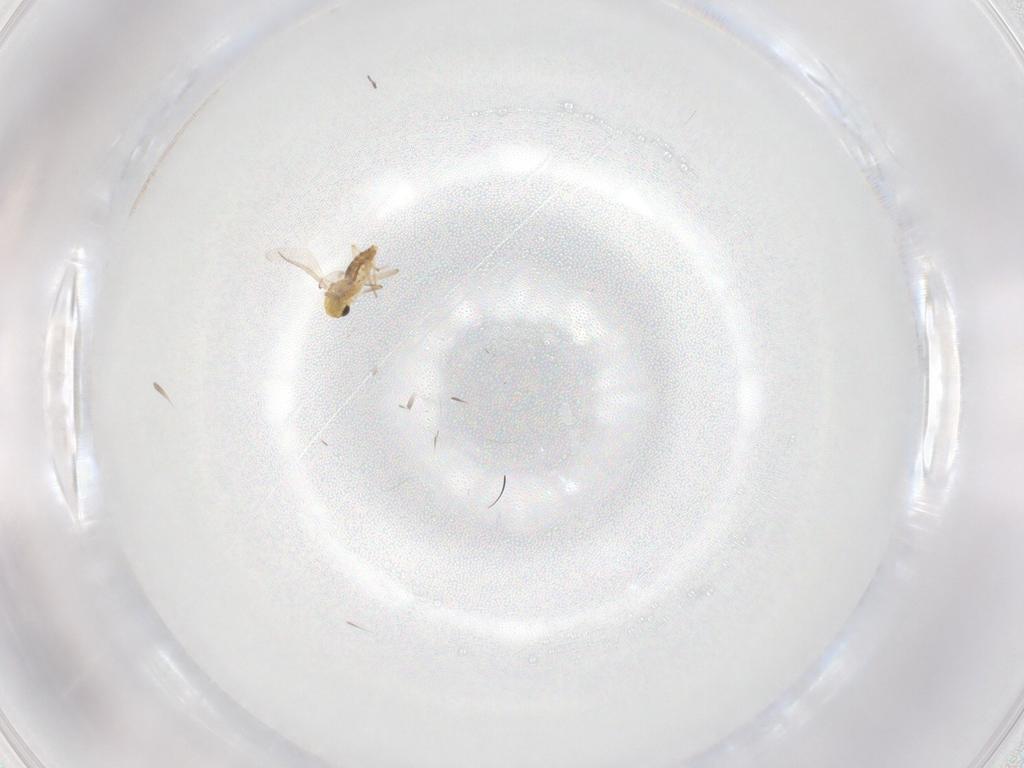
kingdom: Animalia
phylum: Arthropoda
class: Insecta
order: Diptera
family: Chironomidae
